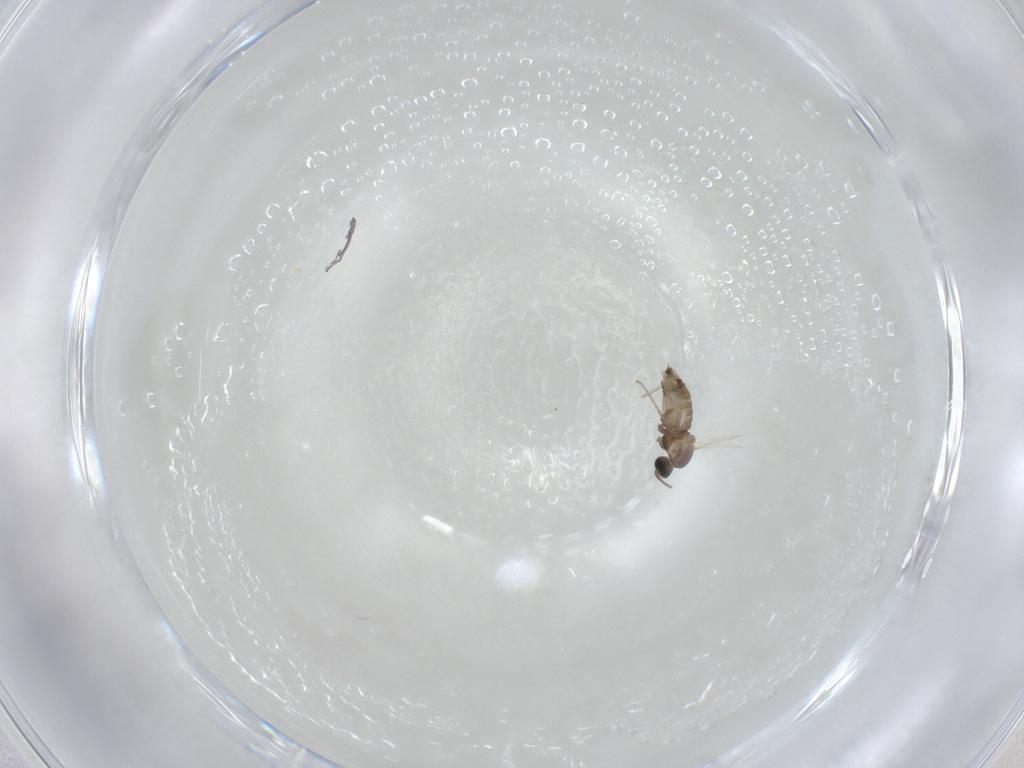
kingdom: Animalia
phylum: Arthropoda
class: Insecta
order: Diptera
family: Cecidomyiidae
